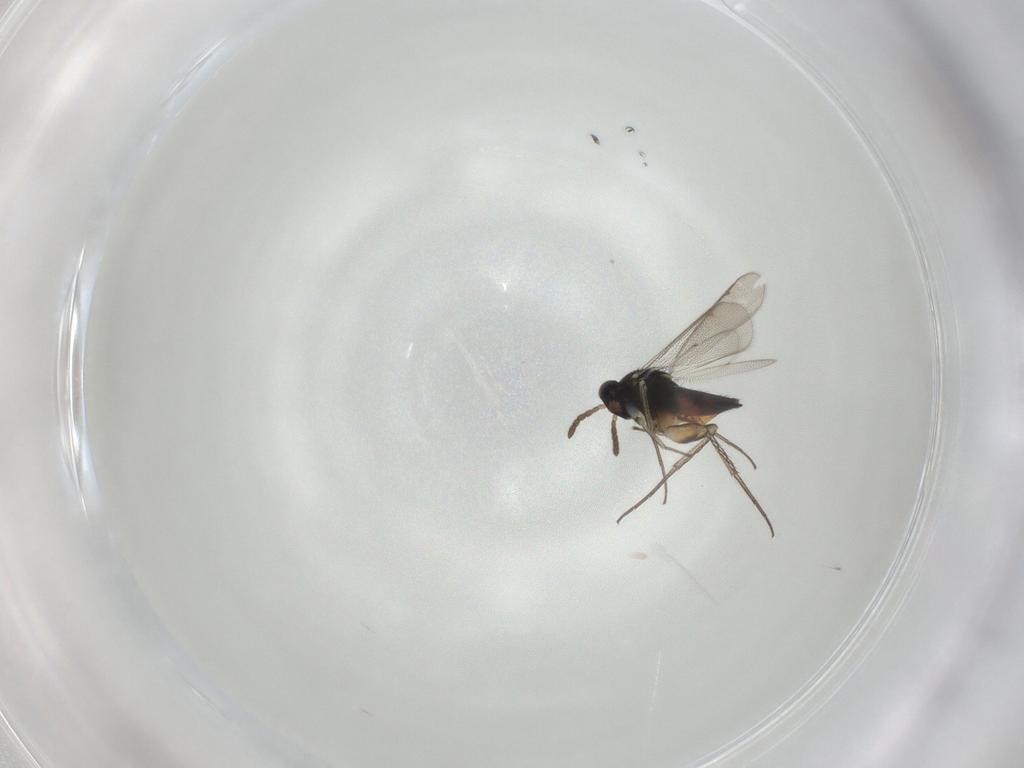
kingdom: Animalia
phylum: Arthropoda
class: Insecta
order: Hymenoptera
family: Eulophidae
